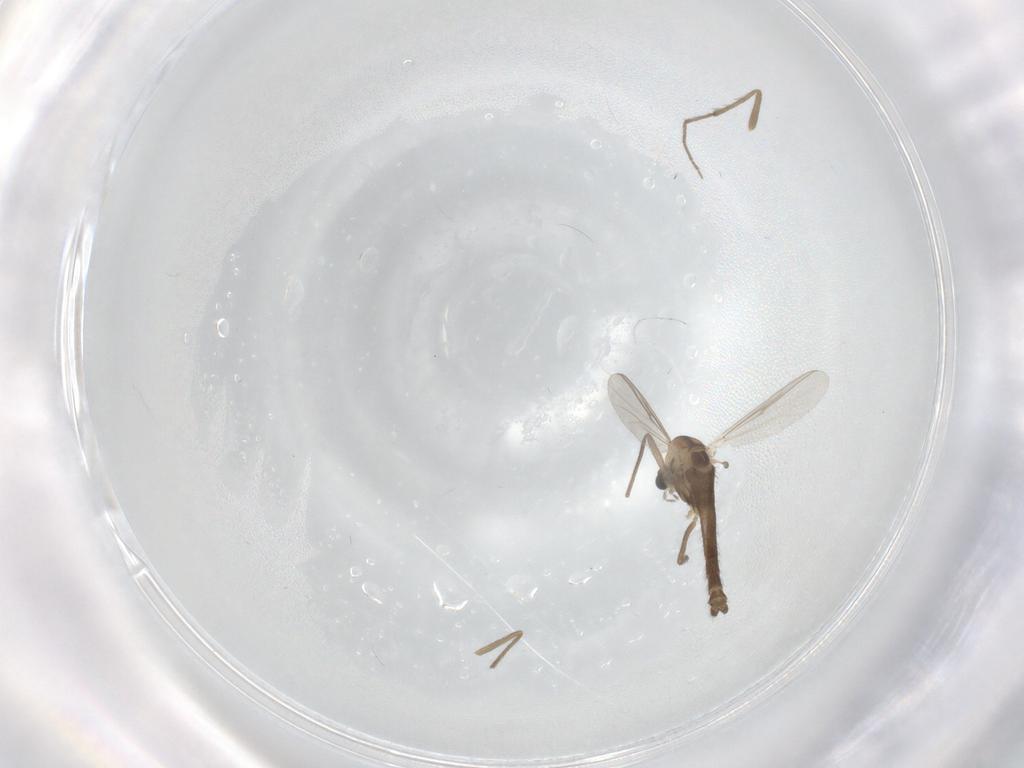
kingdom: Animalia
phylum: Arthropoda
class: Insecta
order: Diptera
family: Chironomidae
